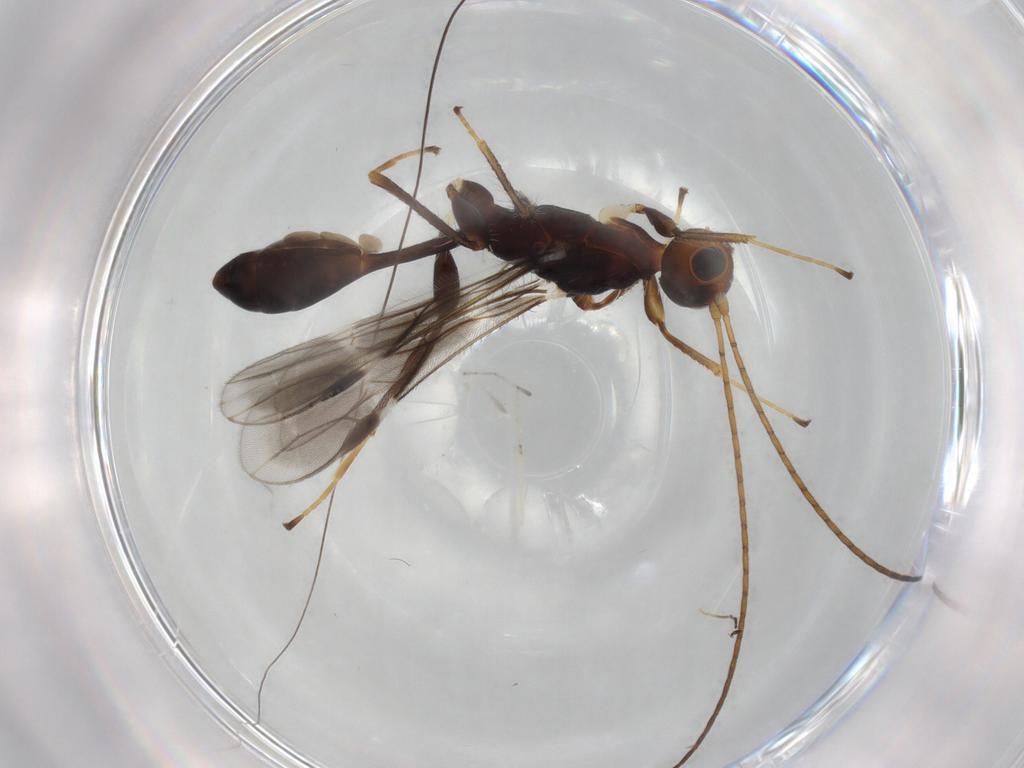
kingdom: Animalia
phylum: Arthropoda
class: Insecta
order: Hymenoptera
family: Braconidae
